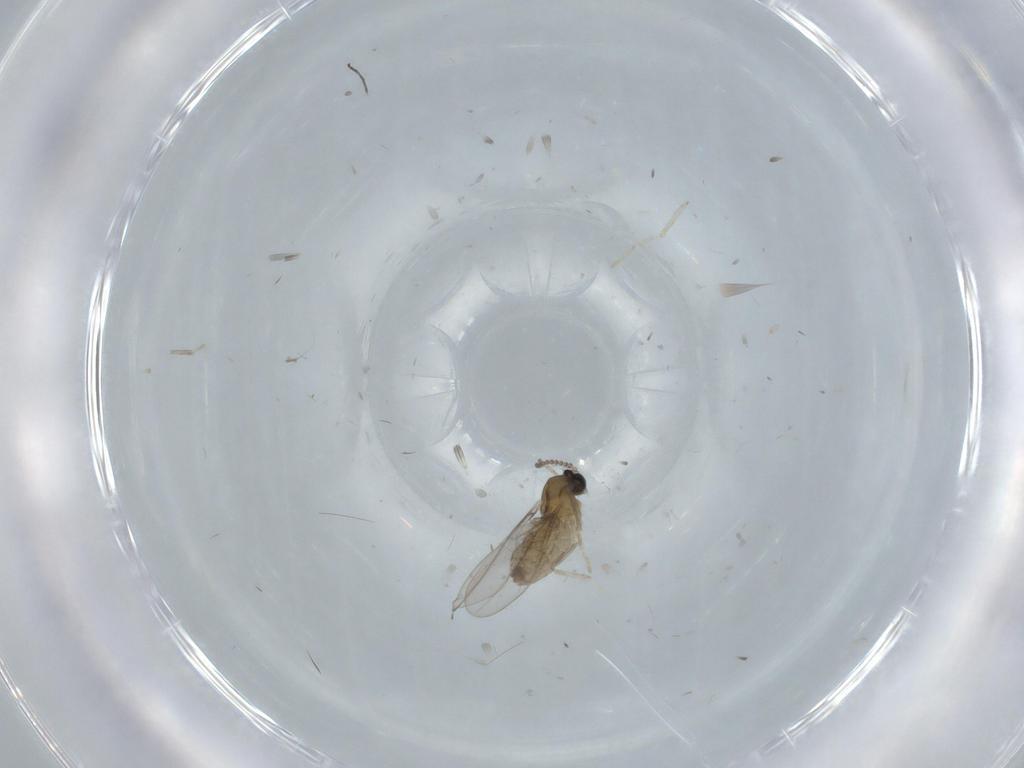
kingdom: Animalia
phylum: Arthropoda
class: Insecta
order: Diptera
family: Cecidomyiidae
